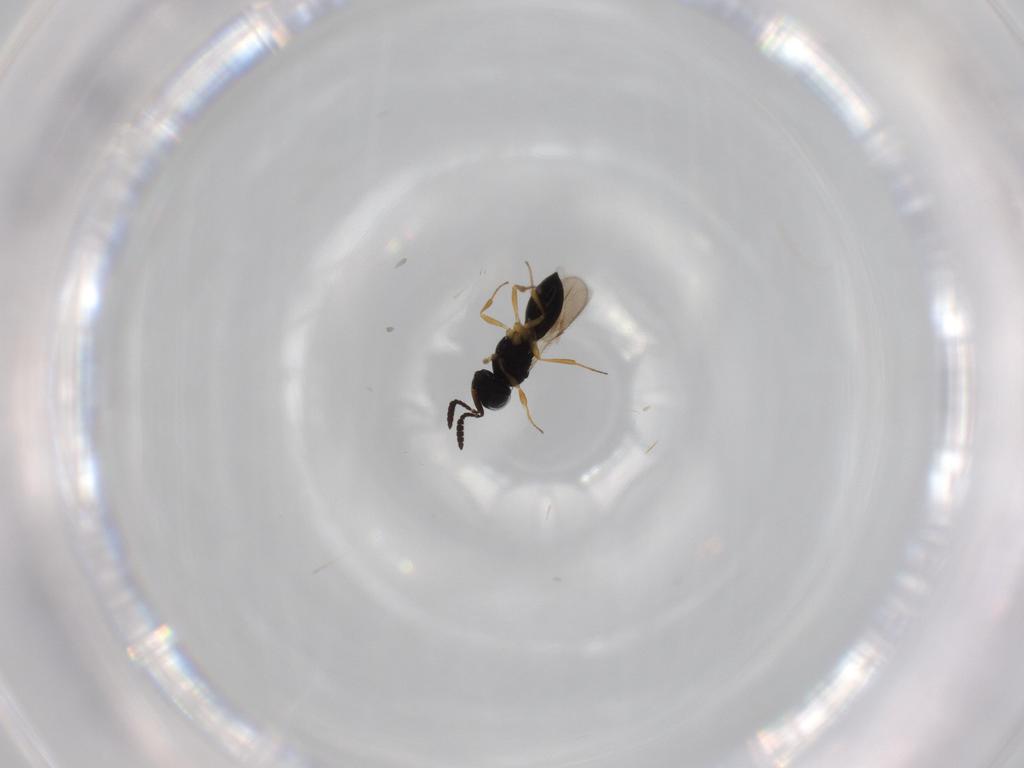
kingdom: Animalia
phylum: Arthropoda
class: Insecta
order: Hymenoptera
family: Scelionidae
